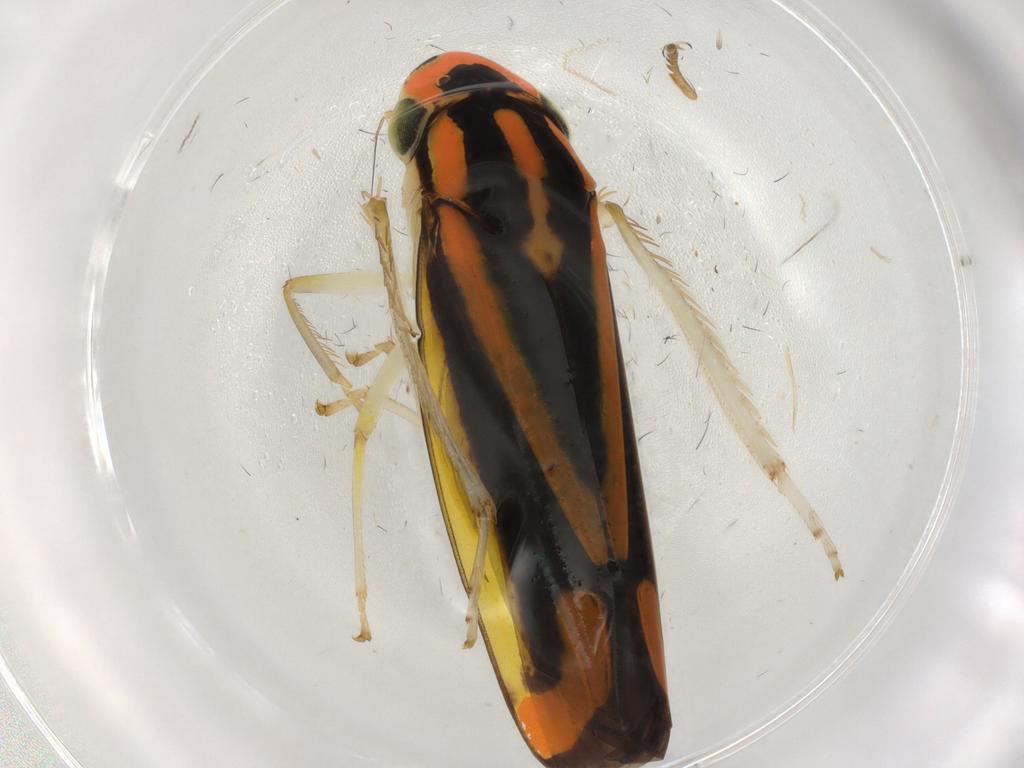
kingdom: Animalia
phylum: Arthropoda
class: Insecta
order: Hemiptera
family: Cicadellidae
